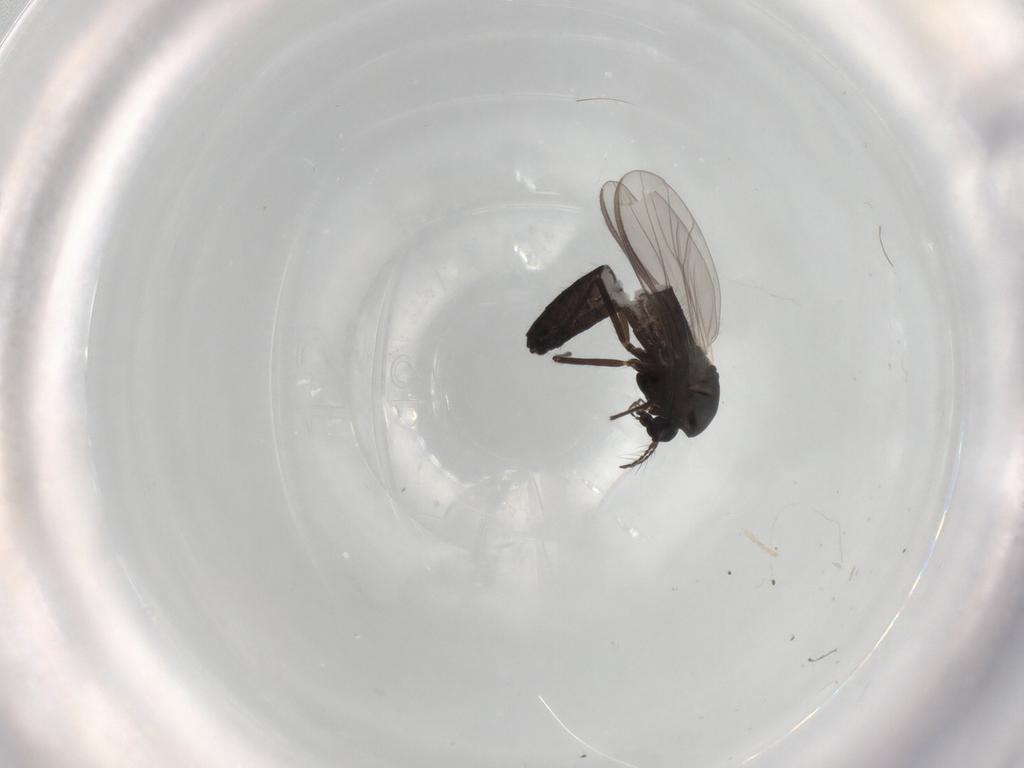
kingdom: Animalia
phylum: Arthropoda
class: Insecta
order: Diptera
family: Chironomidae
